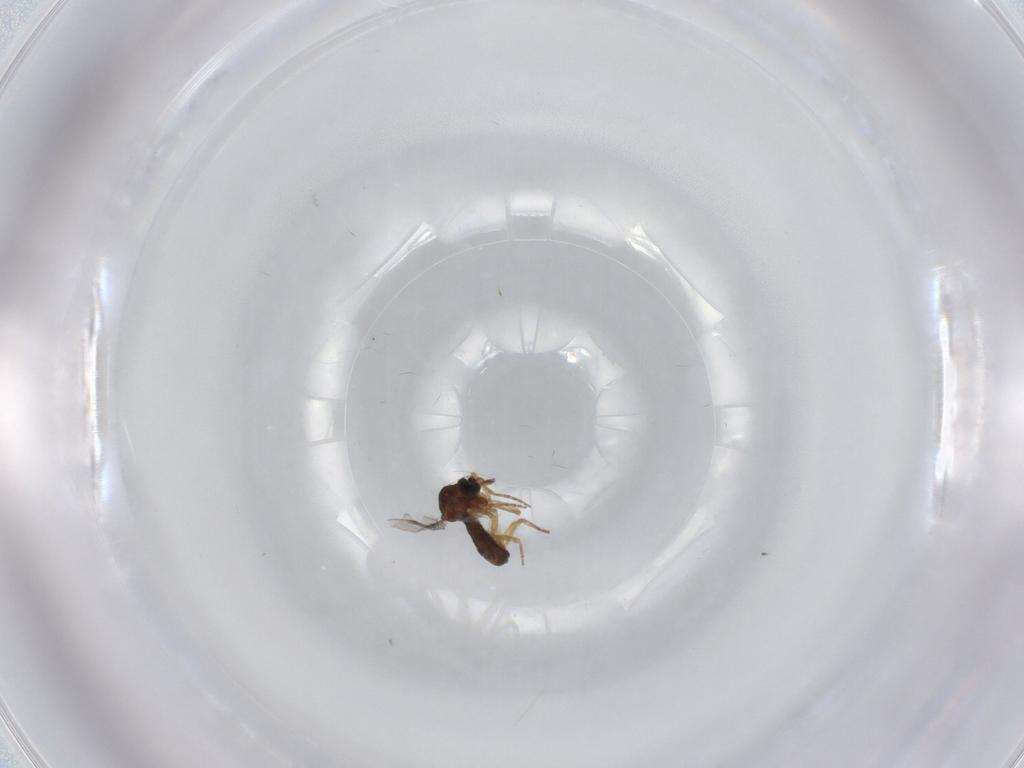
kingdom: Animalia
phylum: Arthropoda
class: Insecta
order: Diptera
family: Ceratopogonidae
